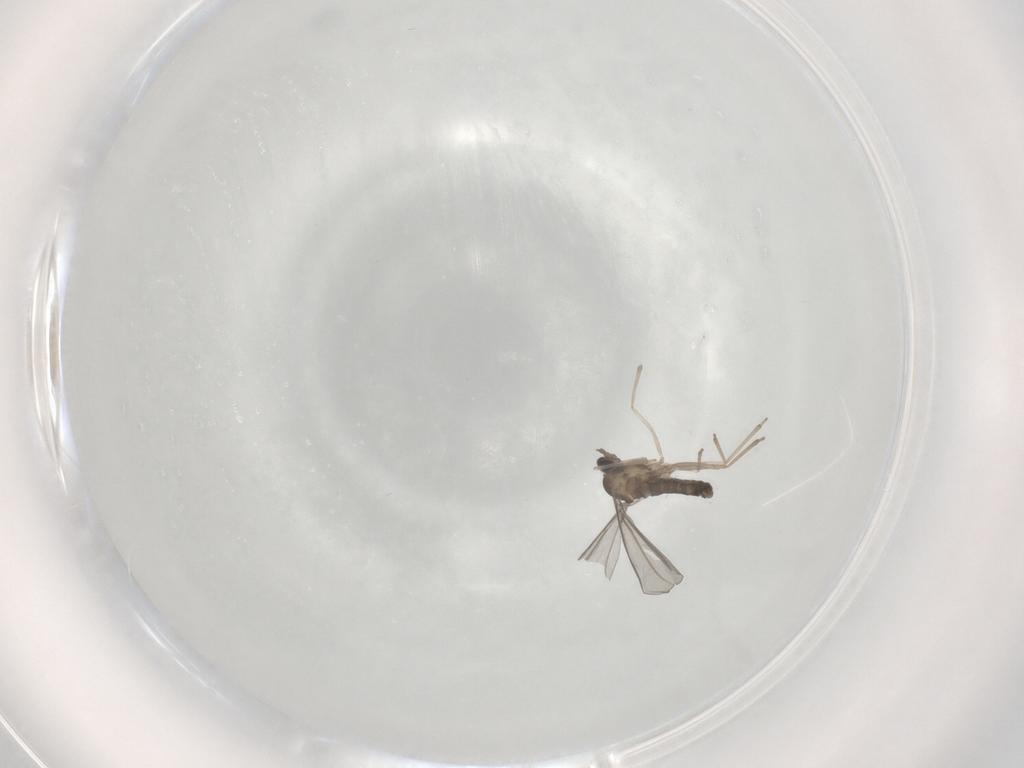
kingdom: Animalia
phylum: Arthropoda
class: Insecta
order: Diptera
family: Cecidomyiidae
